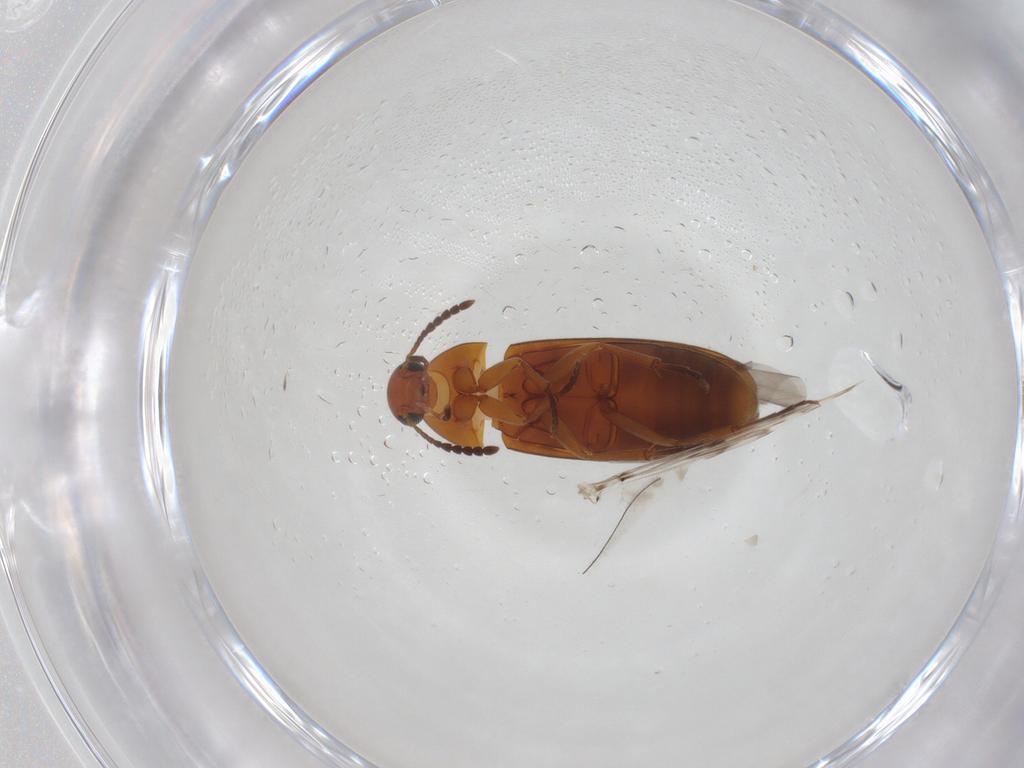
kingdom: Animalia
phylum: Arthropoda
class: Insecta
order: Coleoptera
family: Scraptiidae
